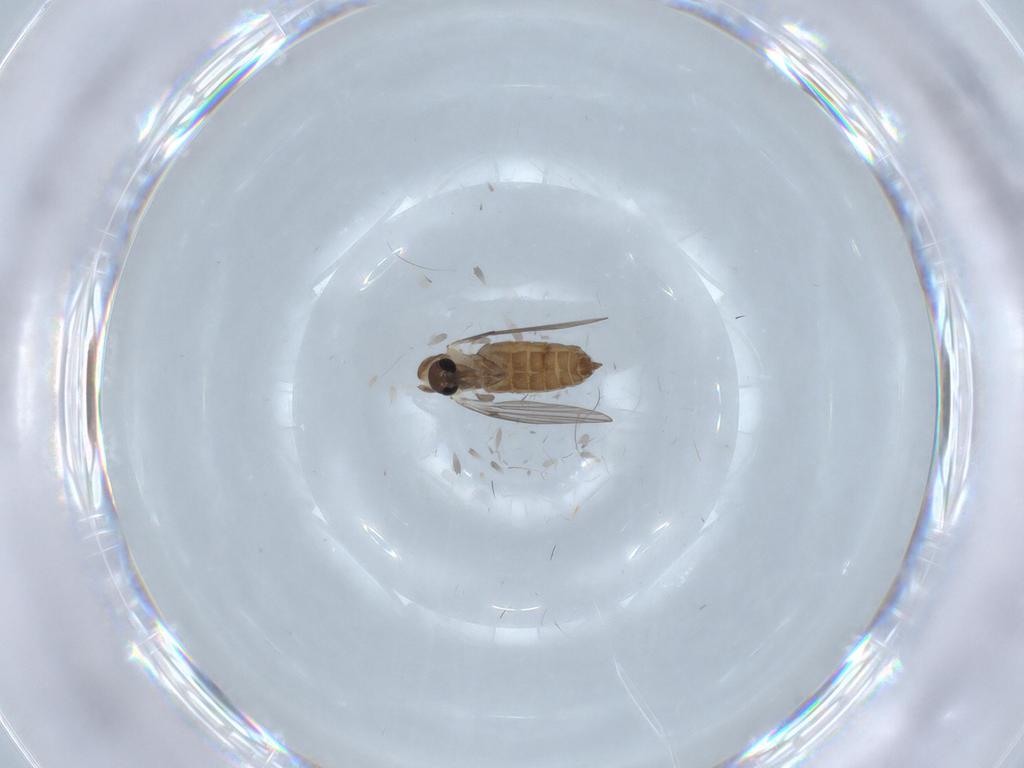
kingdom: Animalia
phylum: Arthropoda
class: Insecta
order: Diptera
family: Psychodidae
